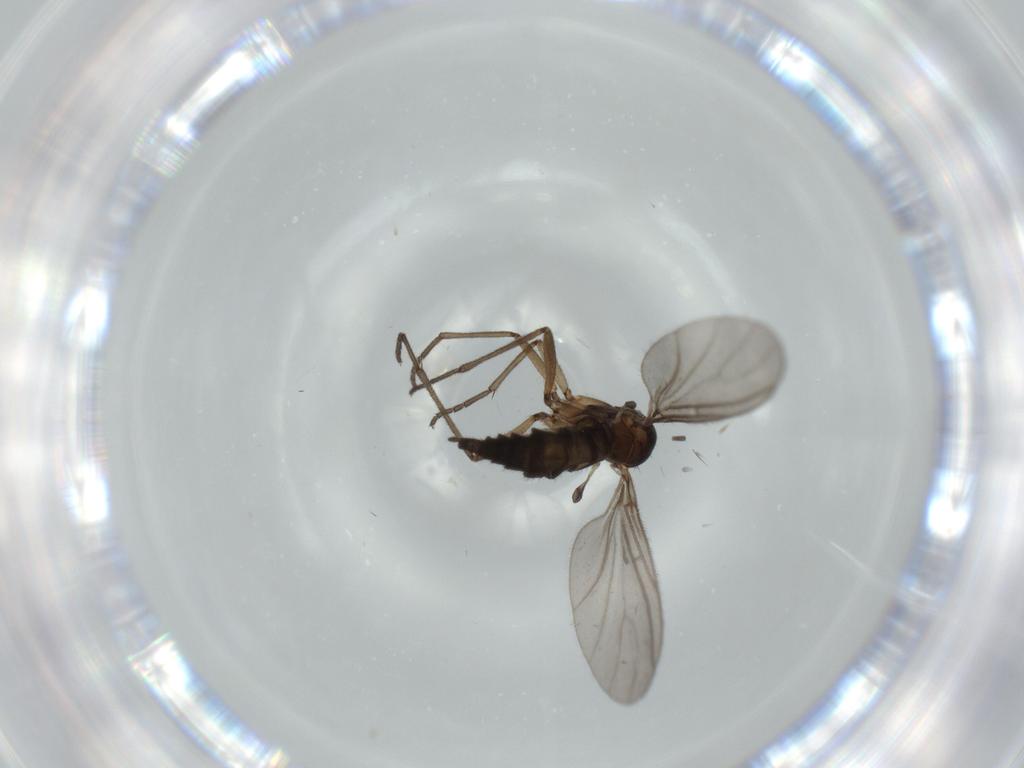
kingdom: Animalia
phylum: Arthropoda
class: Insecta
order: Diptera
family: Sciaridae
